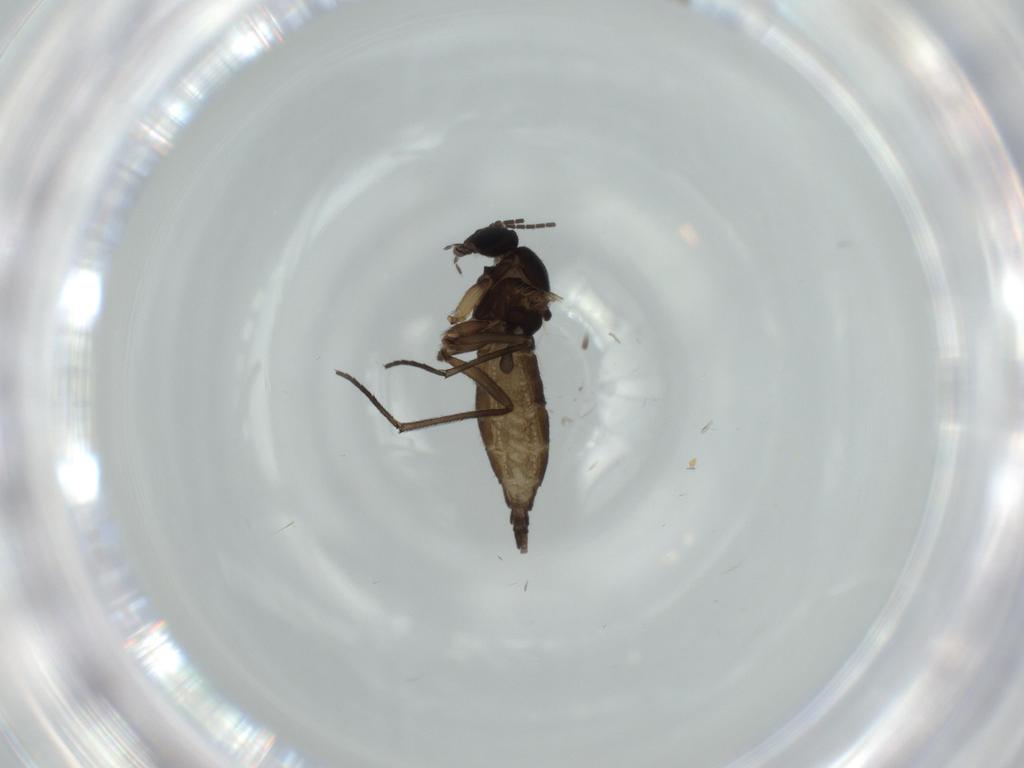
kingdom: Animalia
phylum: Arthropoda
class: Insecta
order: Diptera
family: Sciaridae
